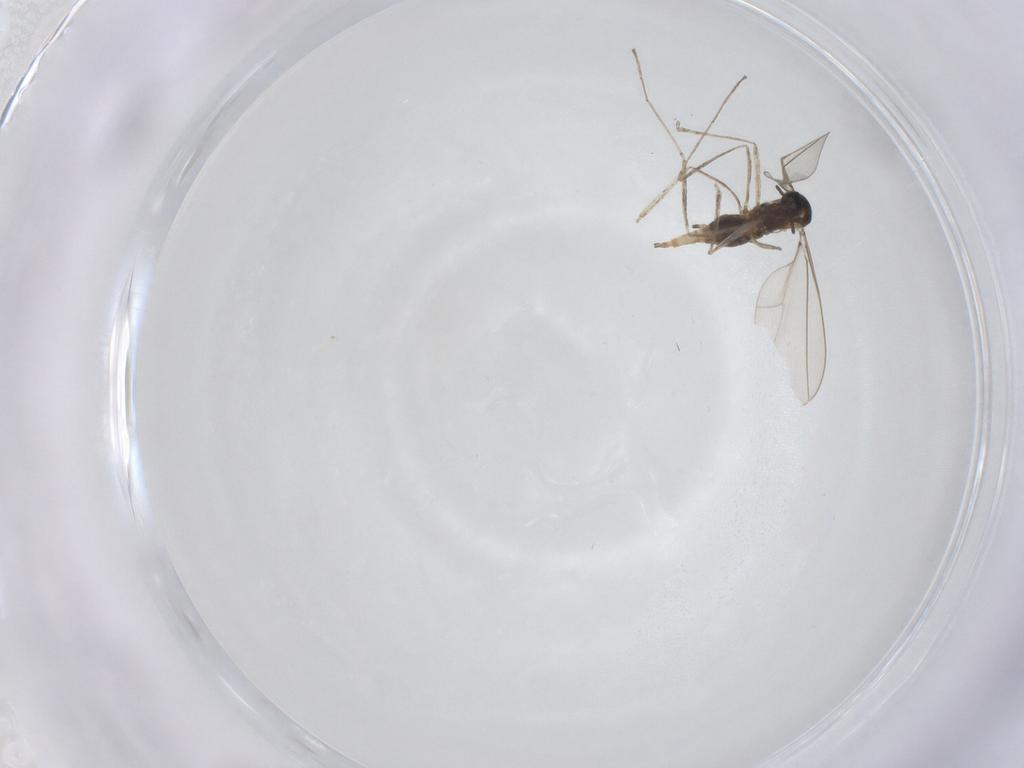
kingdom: Animalia
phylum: Arthropoda
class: Insecta
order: Diptera
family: Cecidomyiidae
